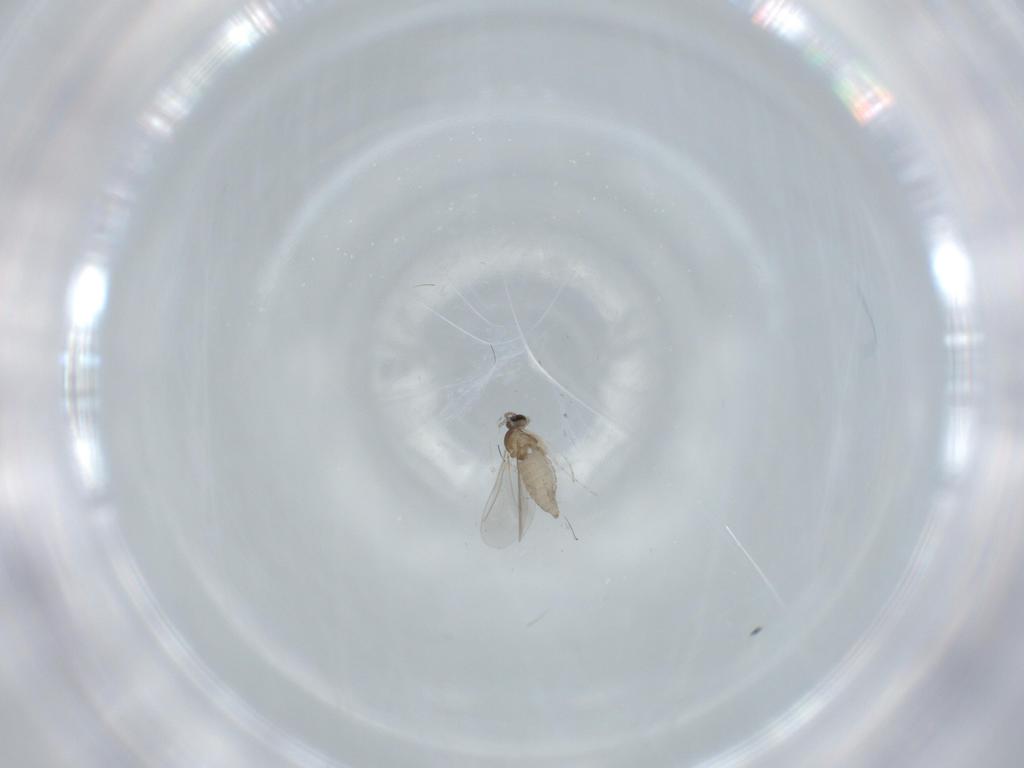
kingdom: Animalia
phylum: Arthropoda
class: Insecta
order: Diptera
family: Cecidomyiidae
